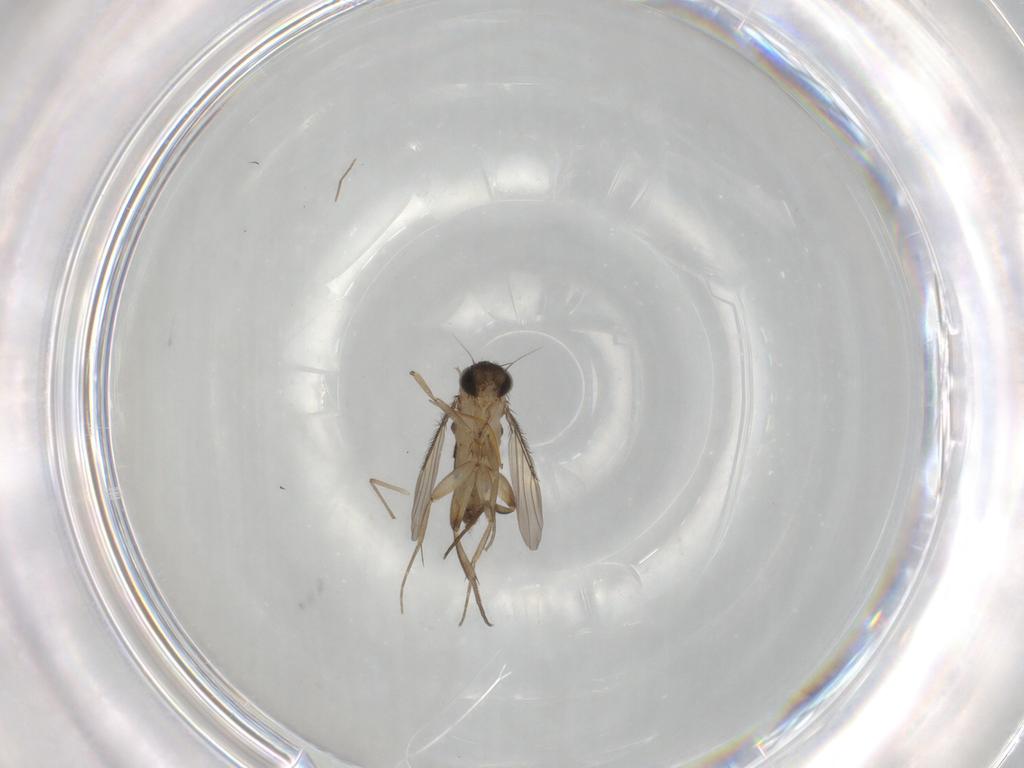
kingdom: Animalia
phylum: Arthropoda
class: Insecta
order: Diptera
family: Phoridae
